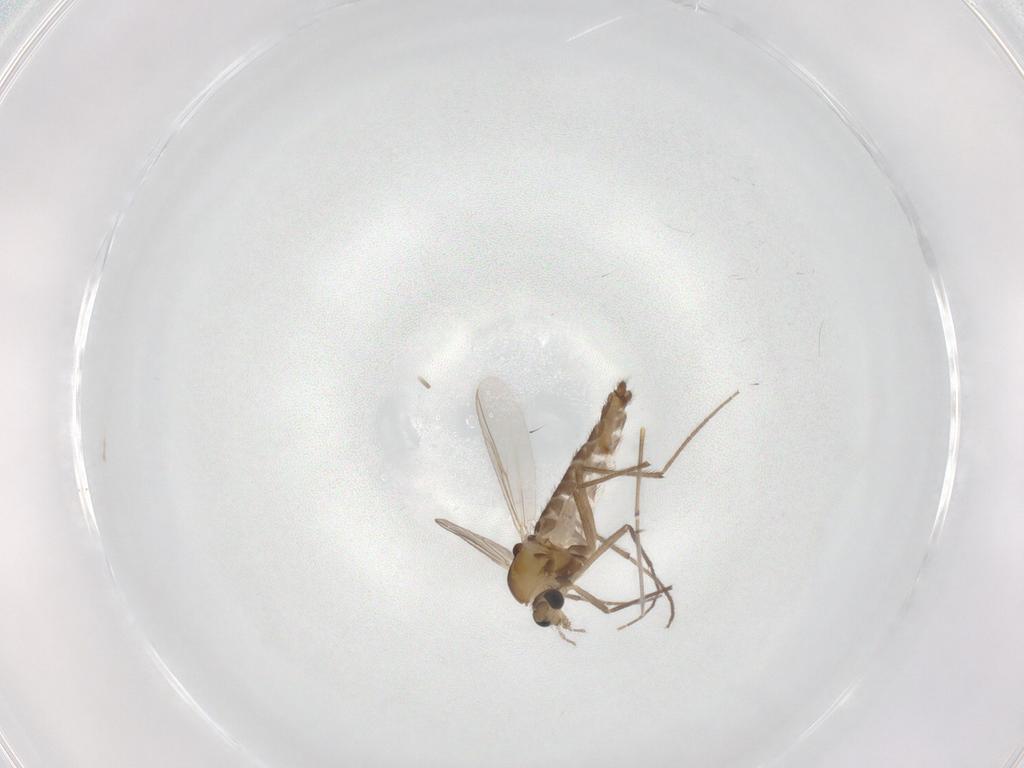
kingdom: Animalia
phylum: Arthropoda
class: Insecta
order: Diptera
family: Chironomidae
